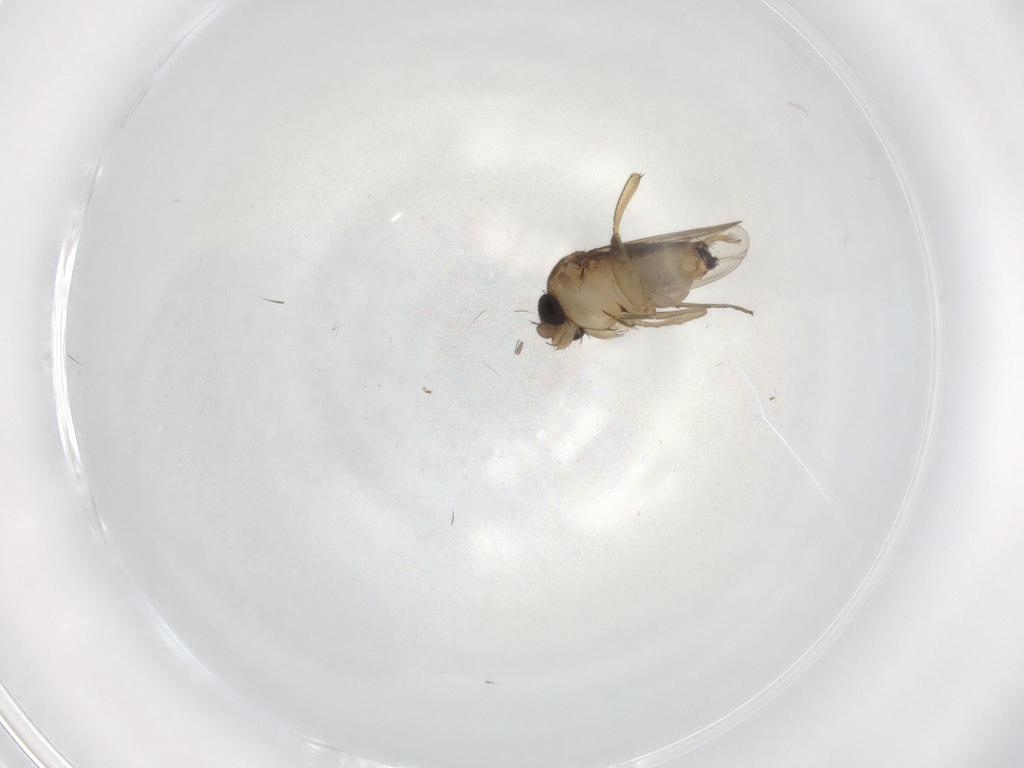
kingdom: Animalia
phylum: Arthropoda
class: Insecta
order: Diptera
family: Phoridae
